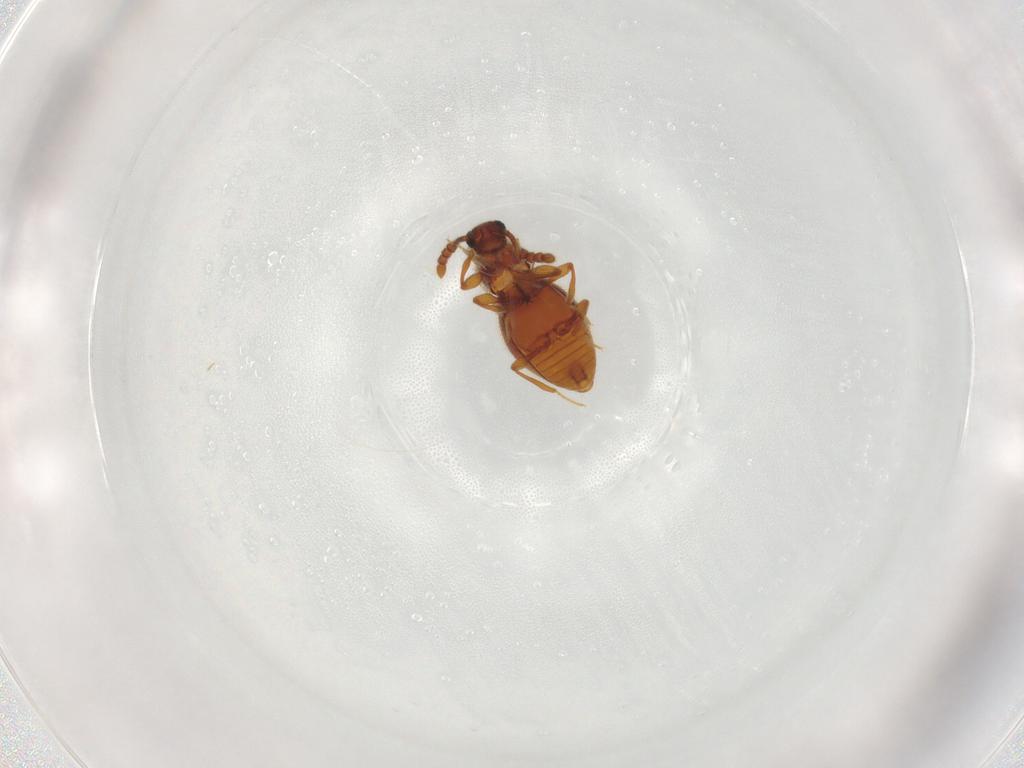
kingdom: Animalia
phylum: Arthropoda
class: Insecta
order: Coleoptera
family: Staphylinidae
